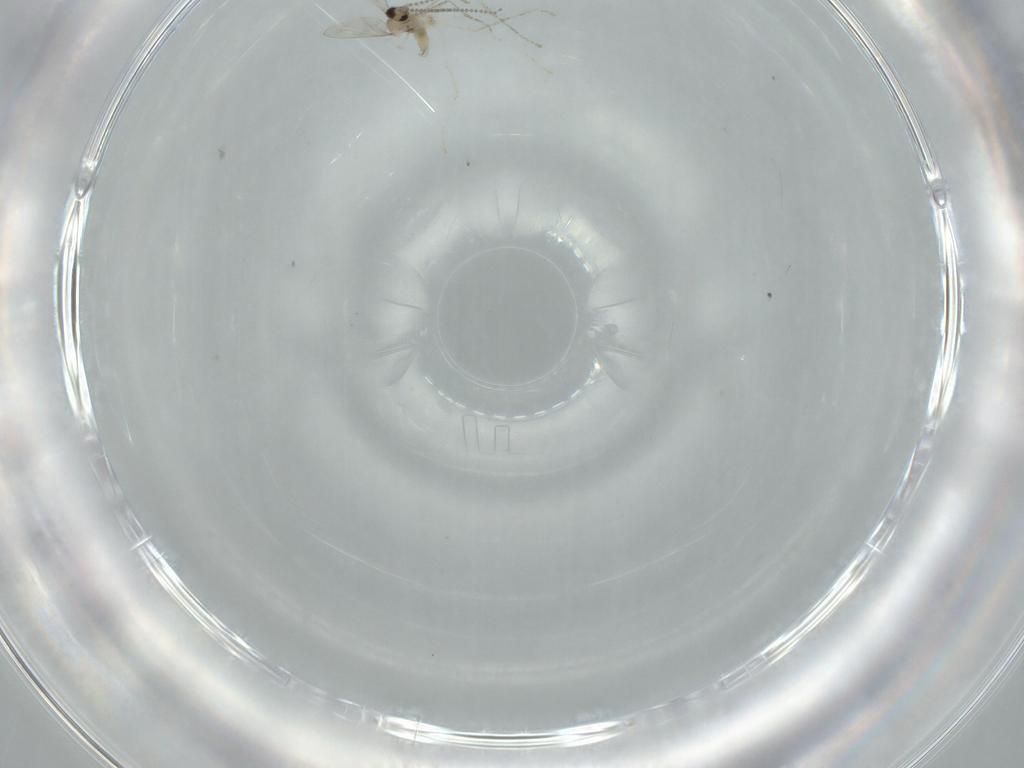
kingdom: Animalia
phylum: Arthropoda
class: Insecta
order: Diptera
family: Cecidomyiidae
